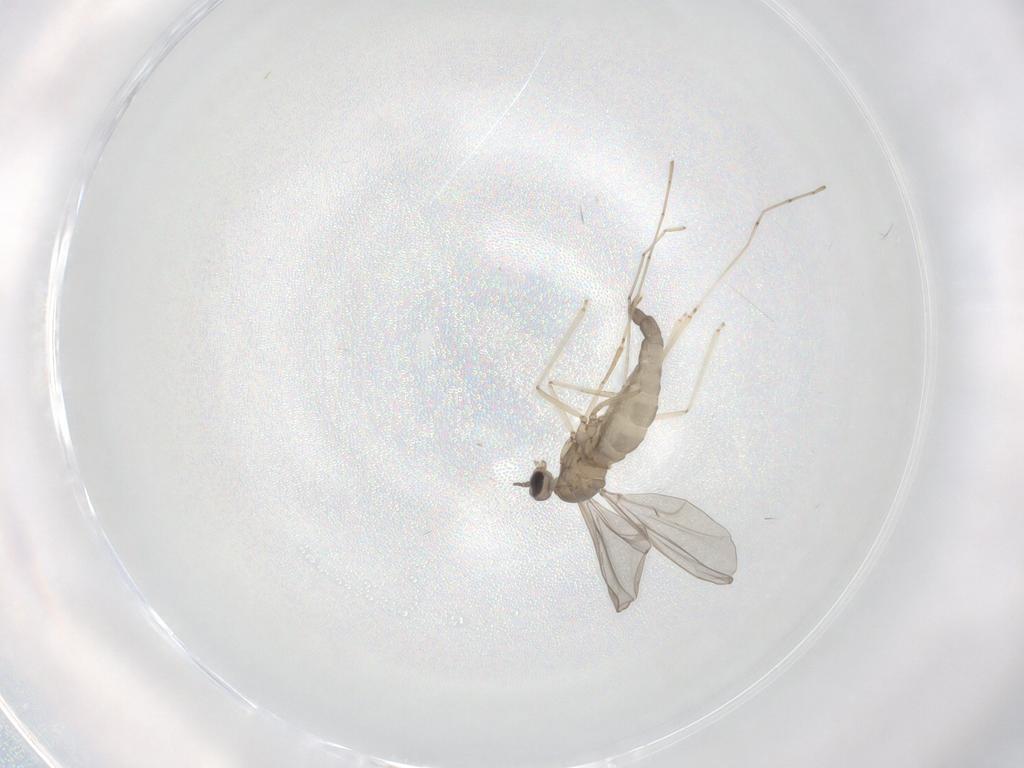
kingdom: Animalia
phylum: Arthropoda
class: Insecta
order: Diptera
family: Cecidomyiidae
